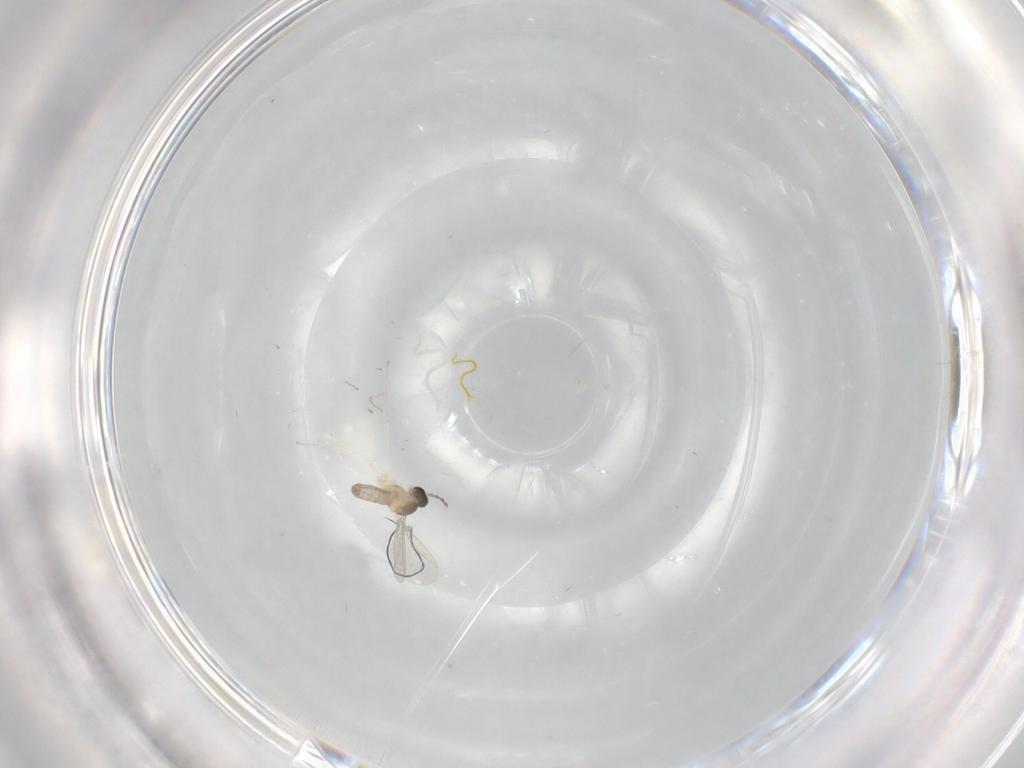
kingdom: Animalia
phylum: Arthropoda
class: Insecta
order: Diptera
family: Cecidomyiidae
